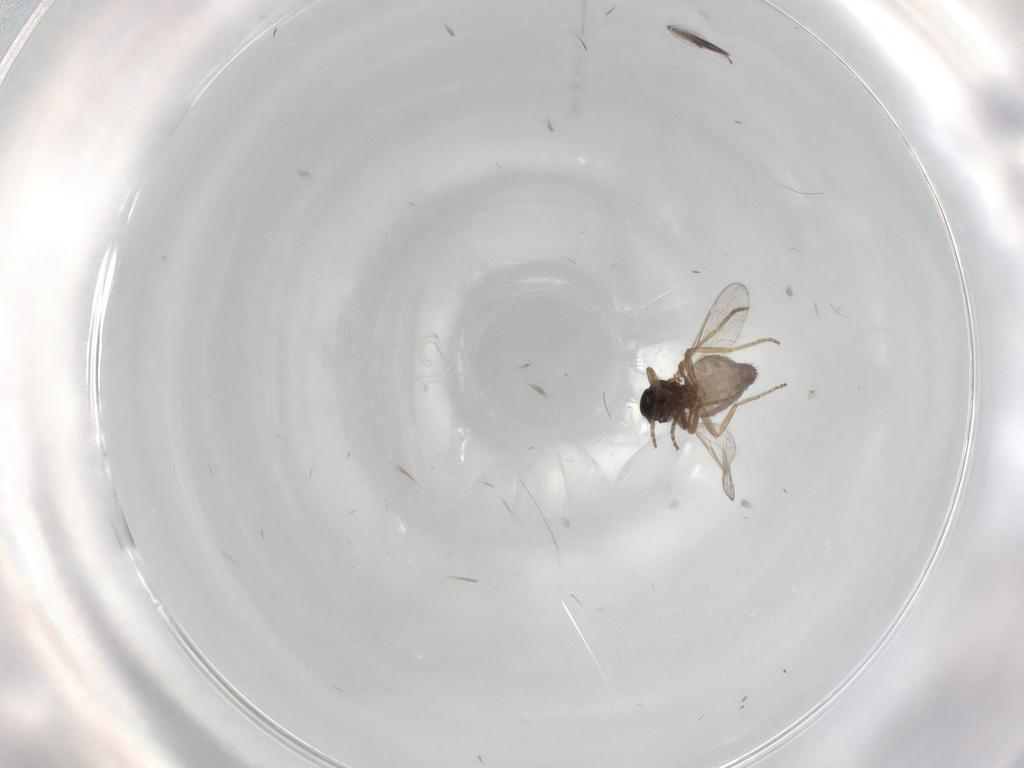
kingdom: Animalia
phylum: Arthropoda
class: Insecta
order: Diptera
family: Ceratopogonidae
